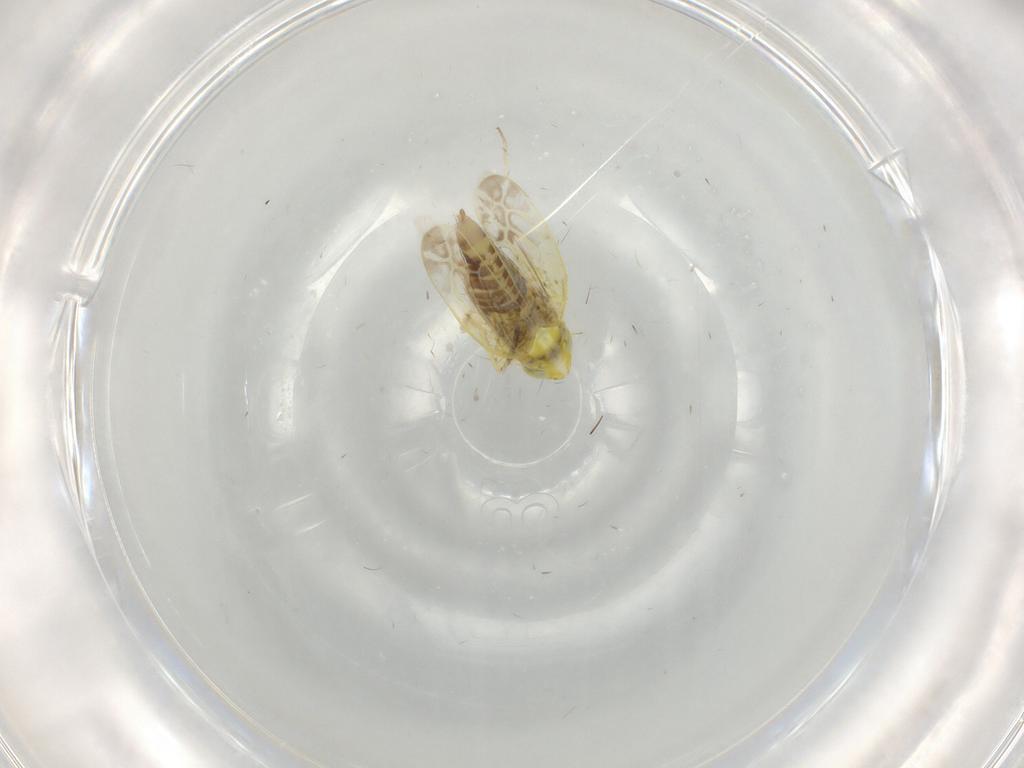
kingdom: Animalia
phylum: Arthropoda
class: Insecta
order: Hemiptera
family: Cicadellidae
